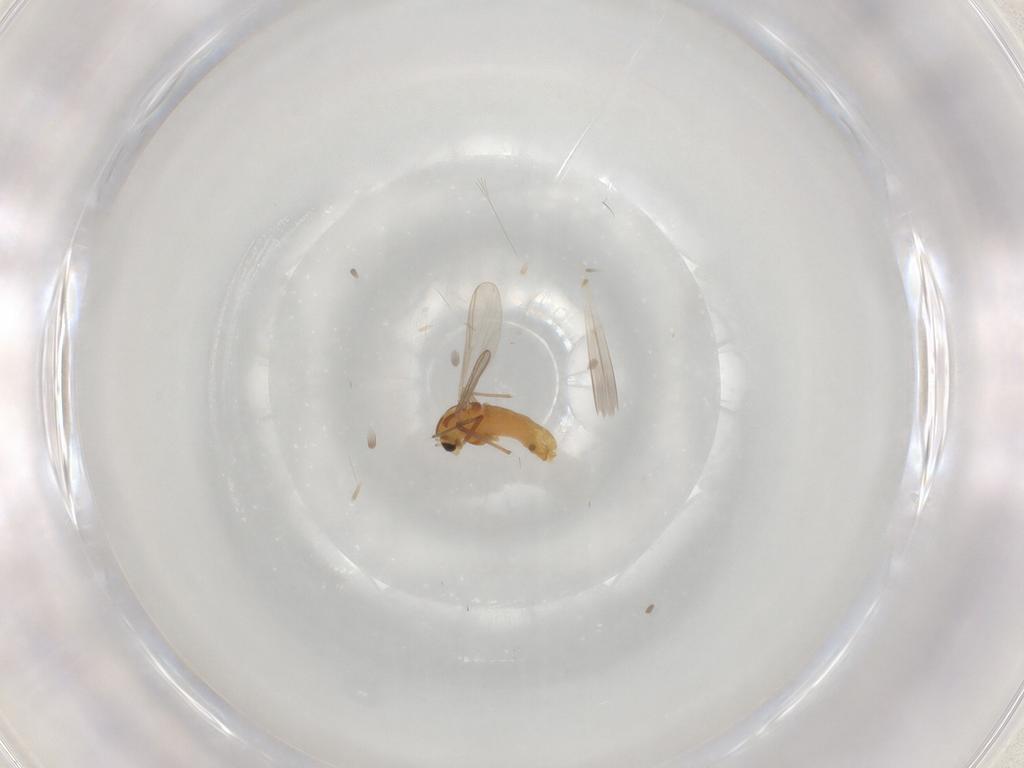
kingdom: Animalia
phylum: Arthropoda
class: Insecta
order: Diptera
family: Chironomidae
